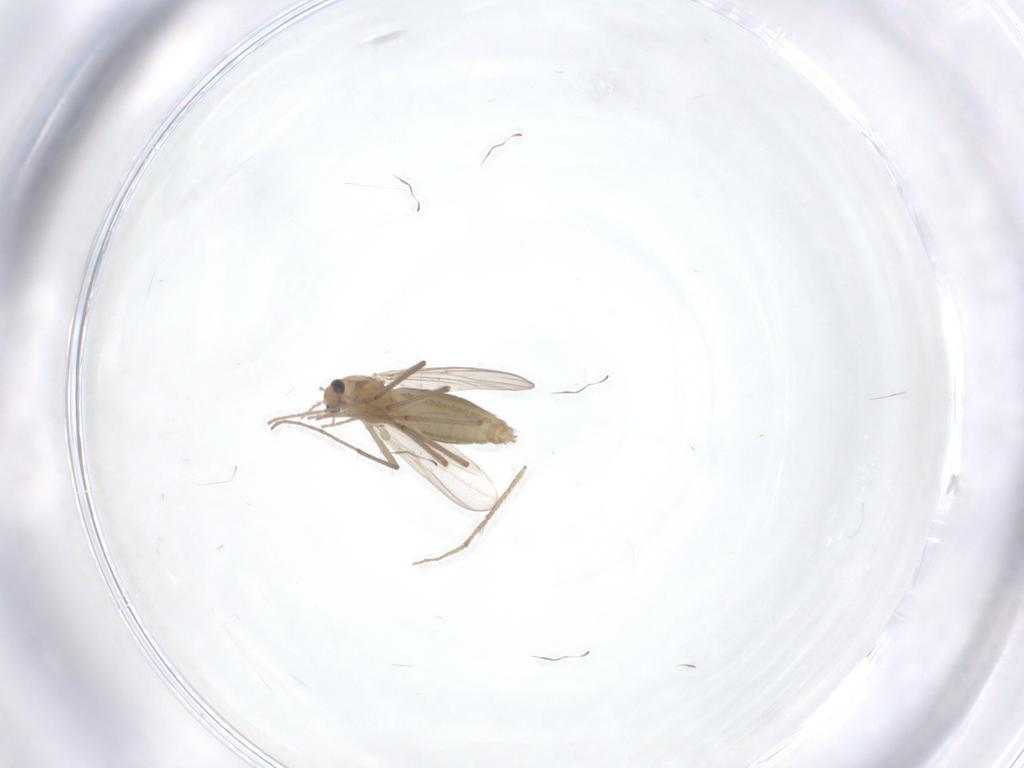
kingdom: Animalia
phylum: Arthropoda
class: Insecta
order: Diptera
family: Chironomidae
